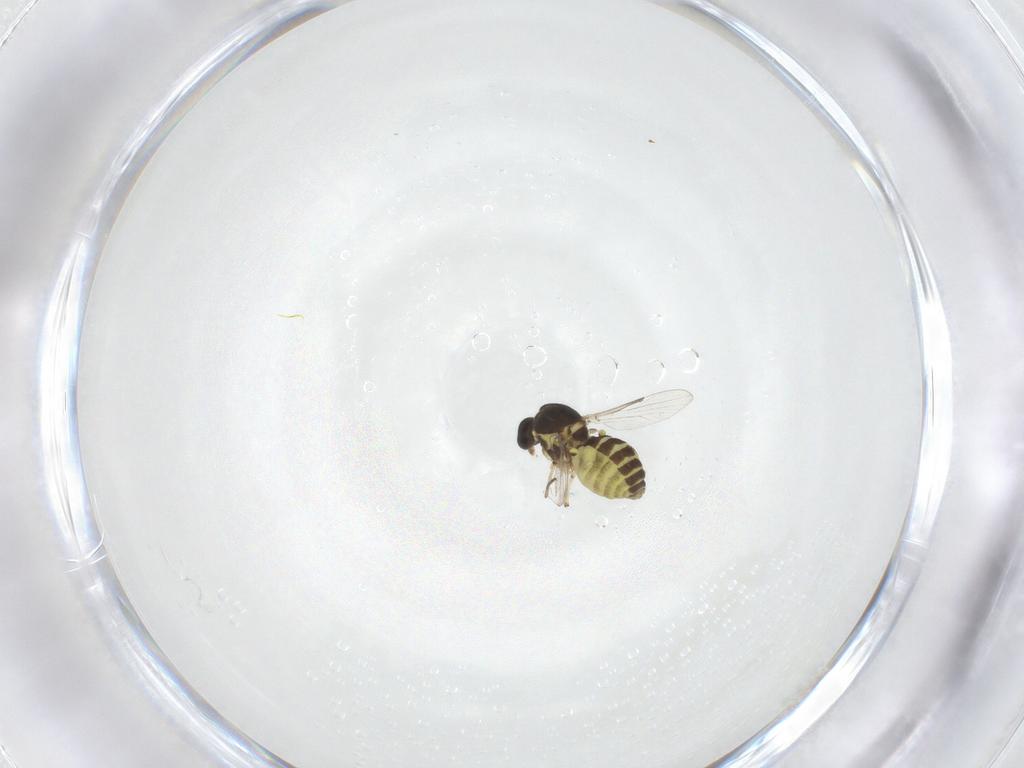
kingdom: Animalia
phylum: Arthropoda
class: Insecta
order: Diptera
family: Ceratopogonidae
